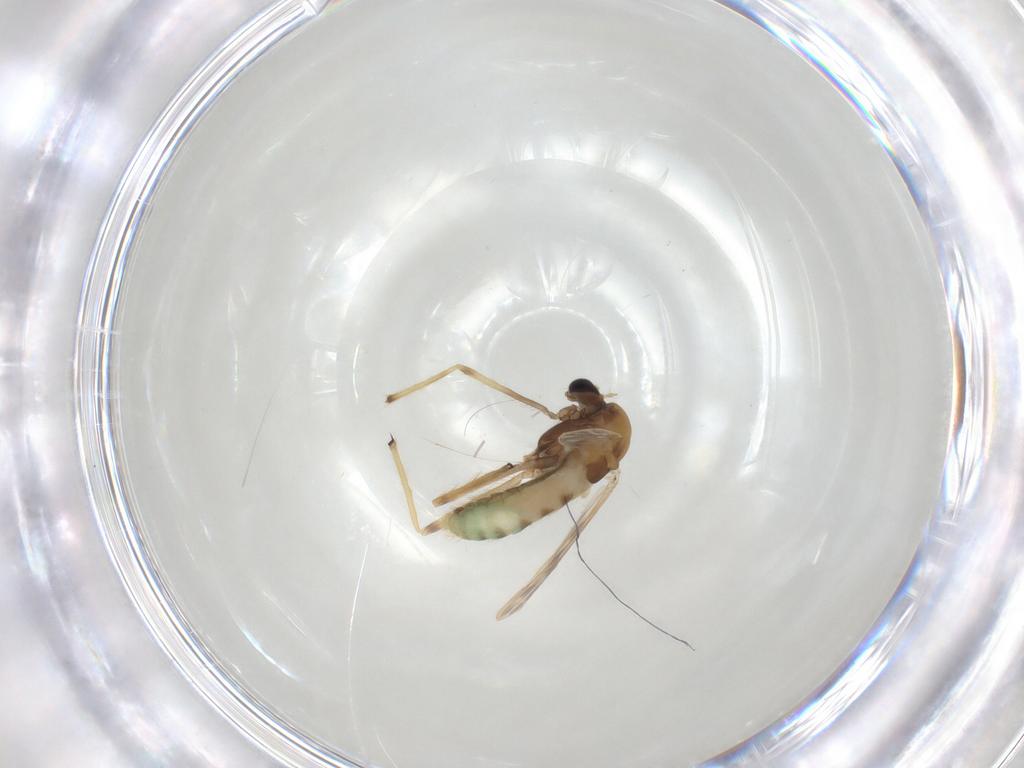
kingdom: Animalia
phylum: Arthropoda
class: Insecta
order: Diptera
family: Chironomidae
